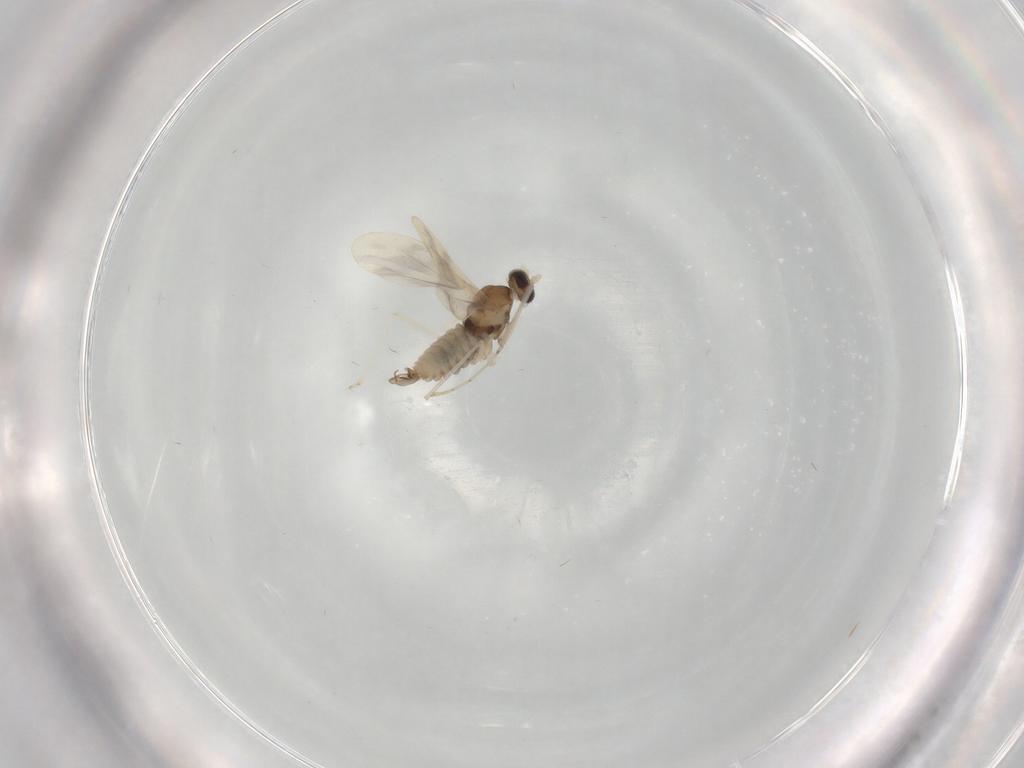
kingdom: Animalia
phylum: Arthropoda
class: Insecta
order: Diptera
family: Cecidomyiidae
